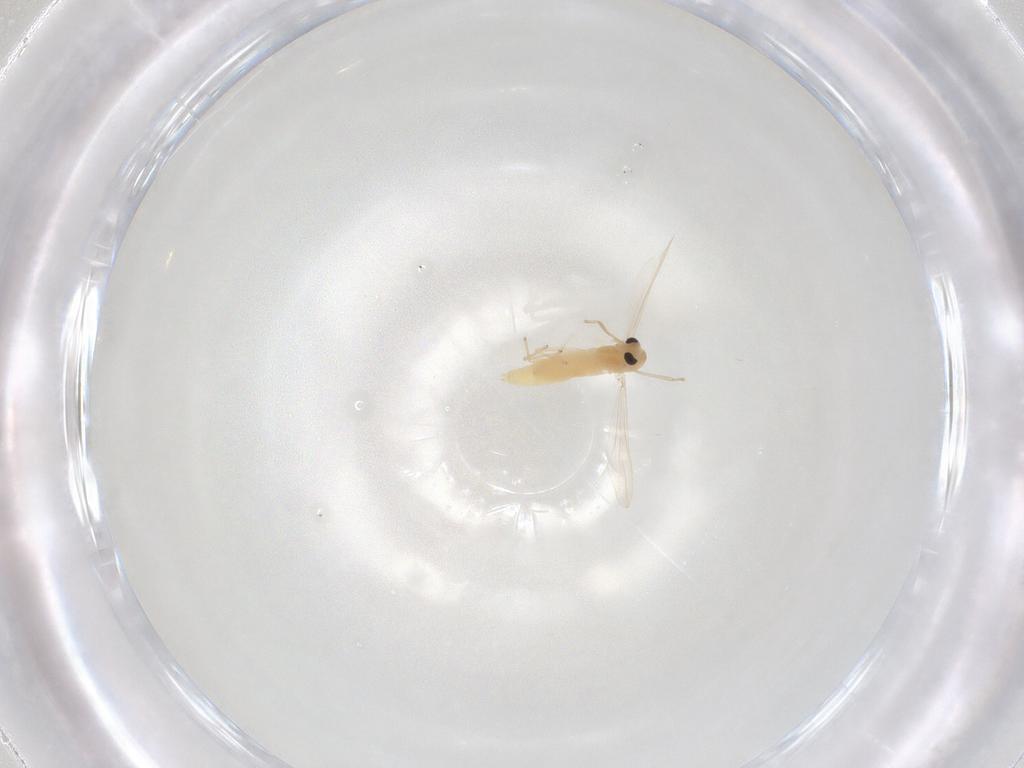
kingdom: Animalia
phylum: Arthropoda
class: Insecta
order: Diptera
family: Chironomidae
